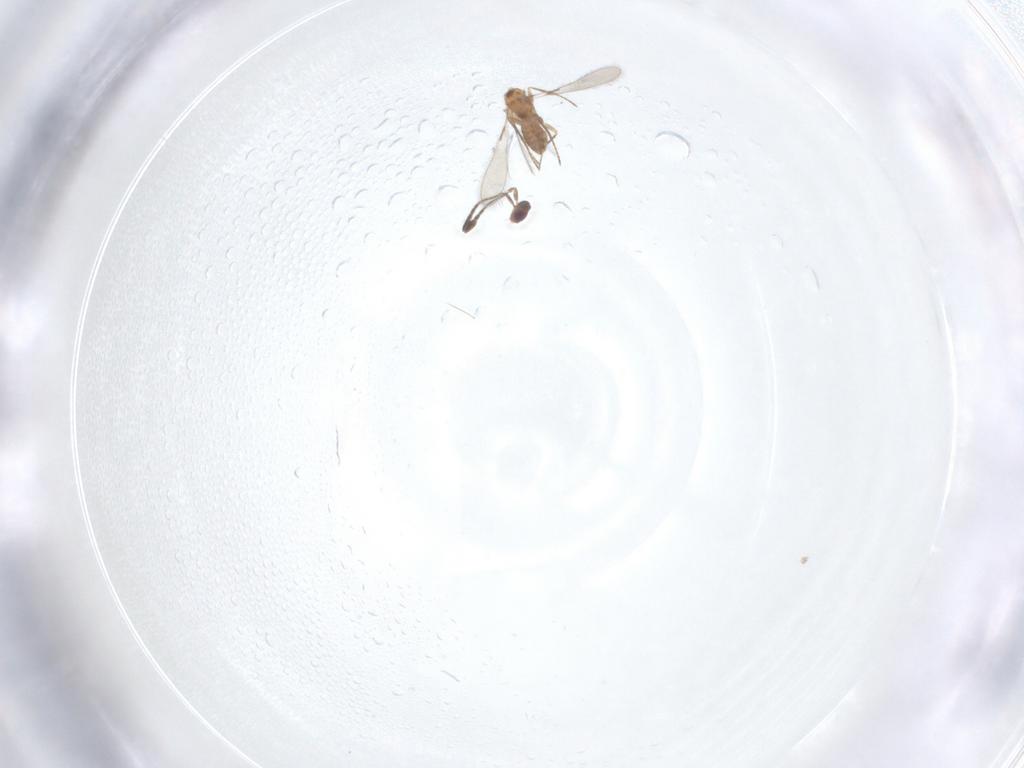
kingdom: Animalia
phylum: Arthropoda
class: Insecta
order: Hymenoptera
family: Mymaridae
